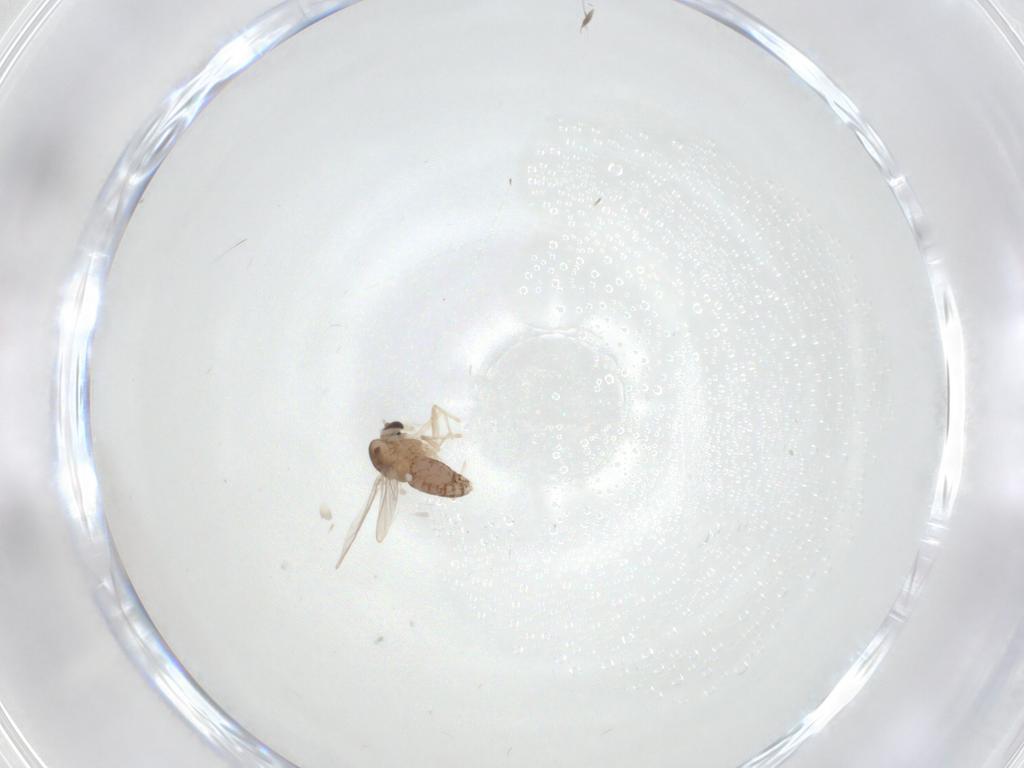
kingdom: Animalia
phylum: Arthropoda
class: Insecta
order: Diptera
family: Chironomidae
